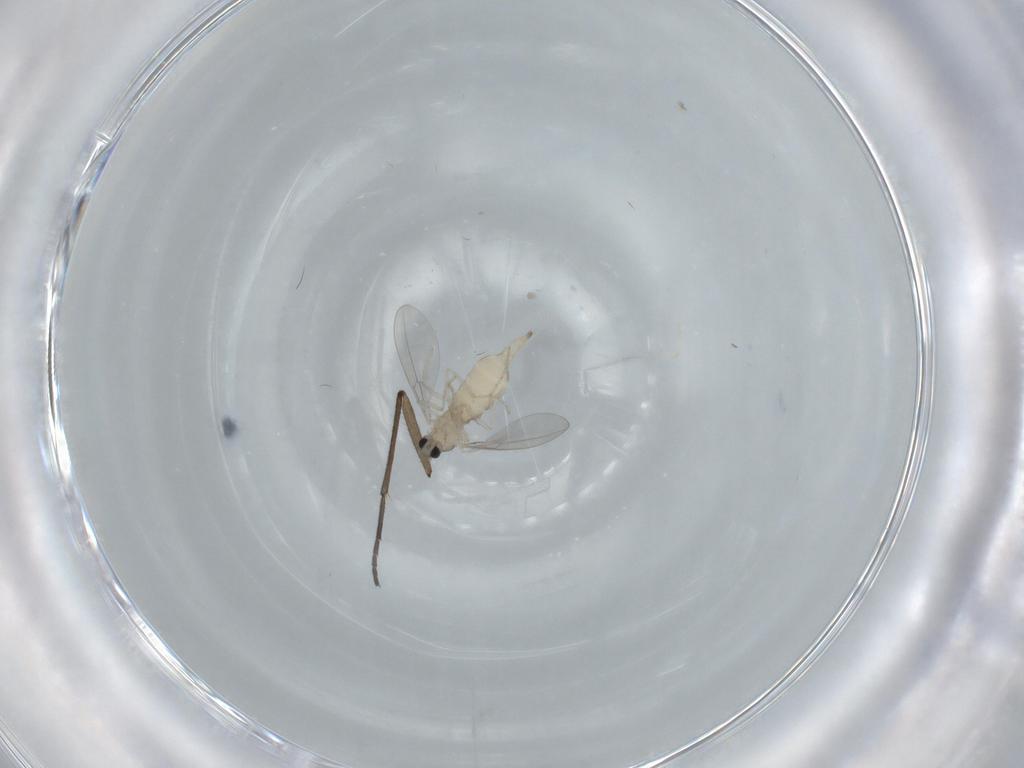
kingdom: Animalia
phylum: Arthropoda
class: Insecta
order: Diptera
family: Cecidomyiidae
